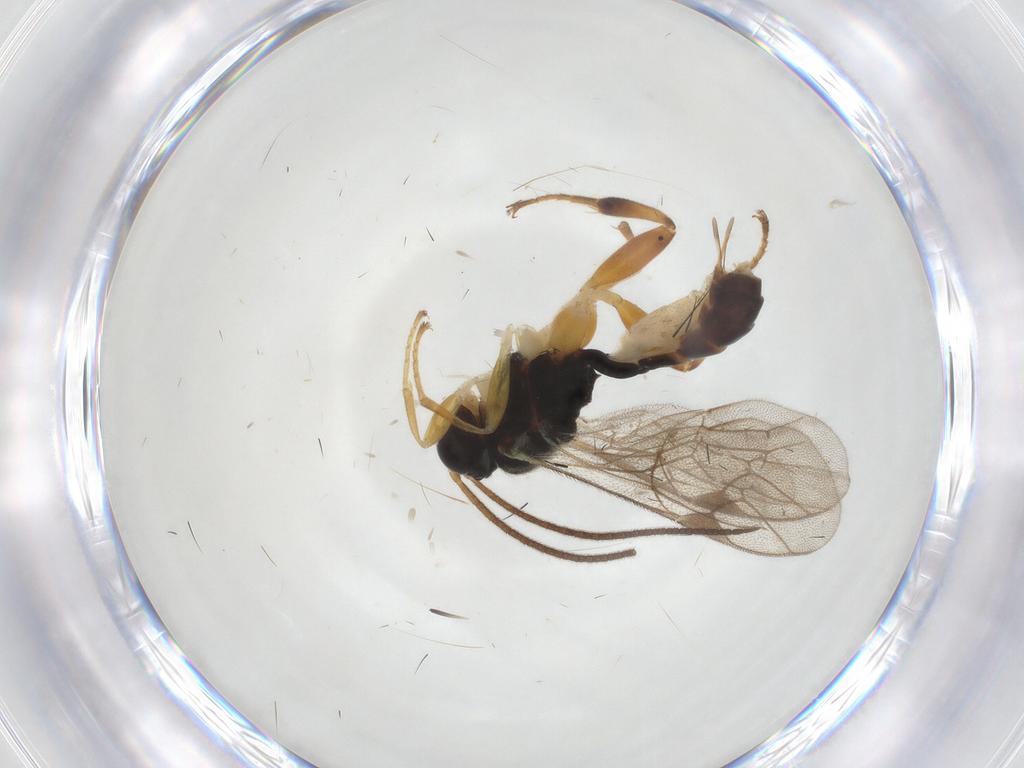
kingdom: Animalia
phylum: Arthropoda
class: Insecta
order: Hymenoptera
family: Ichneumonidae
